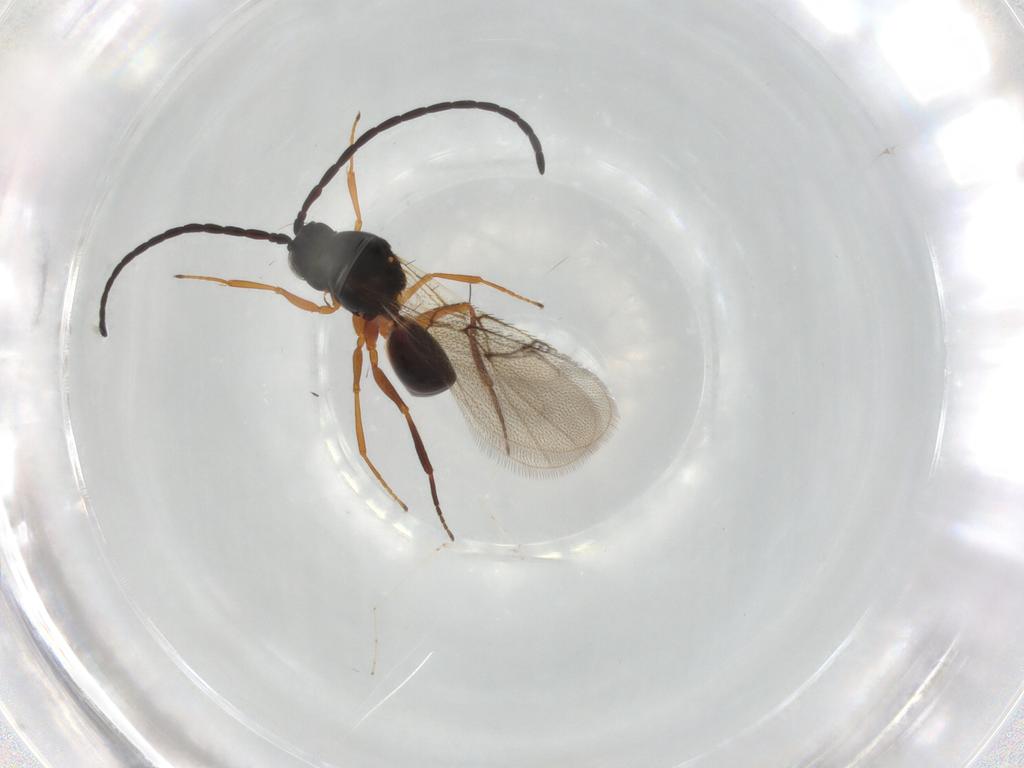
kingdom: Animalia
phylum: Arthropoda
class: Insecta
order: Hymenoptera
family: Figitidae
